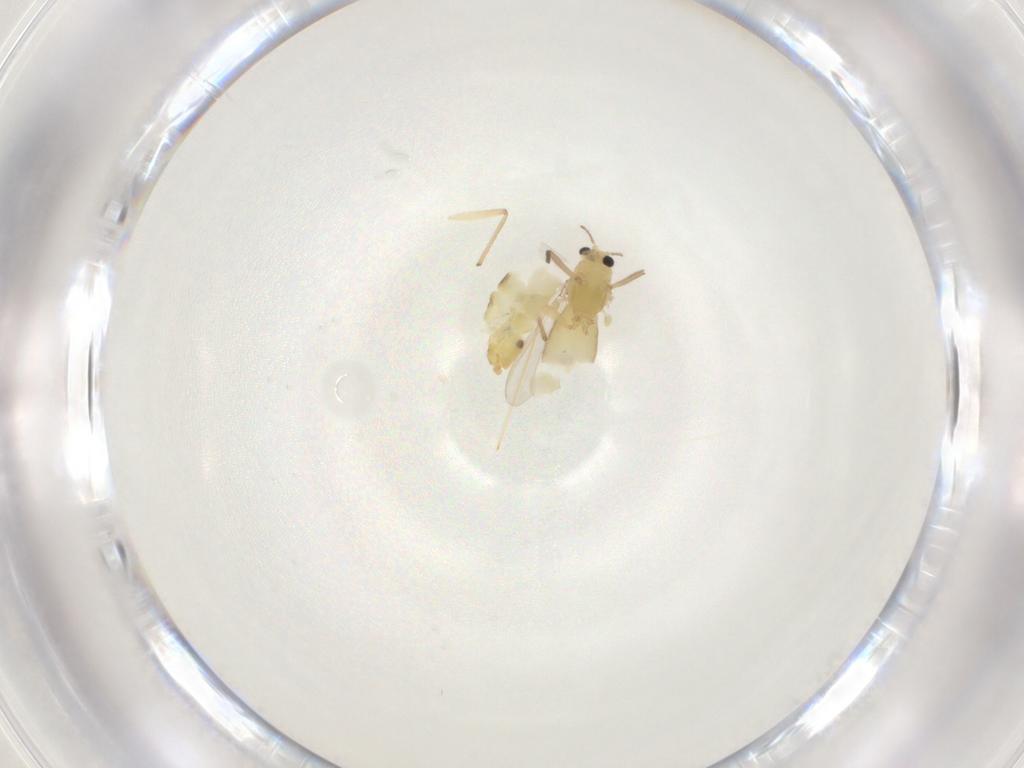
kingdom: Animalia
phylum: Arthropoda
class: Insecta
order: Diptera
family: Chironomidae
